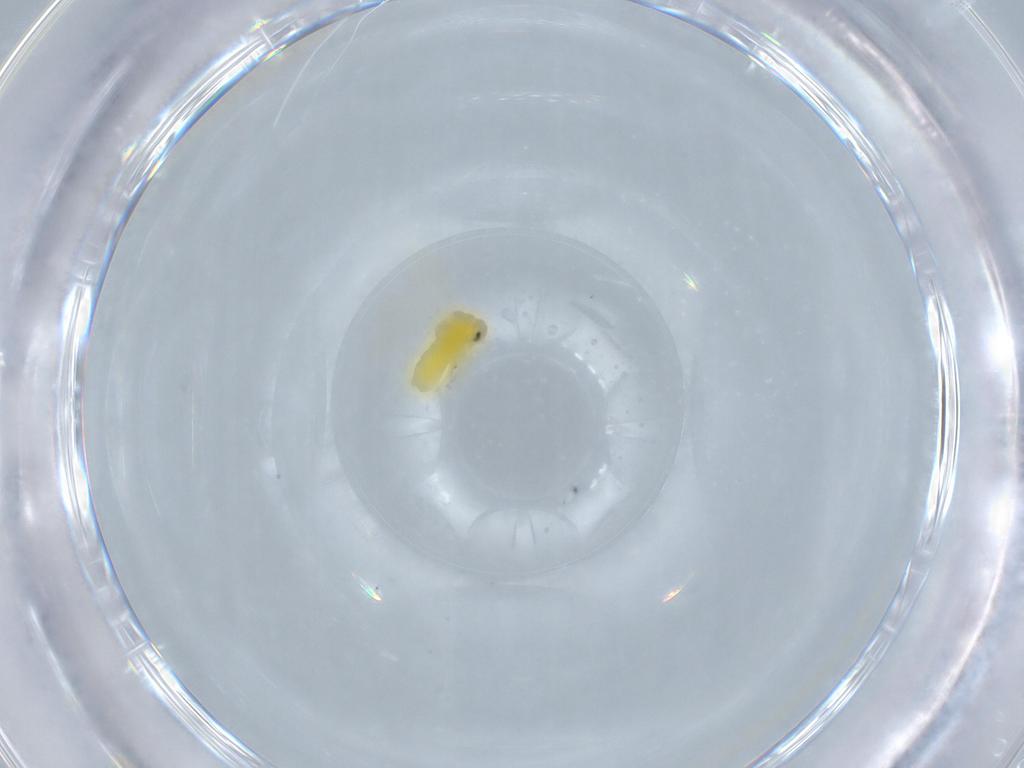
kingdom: Animalia
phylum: Arthropoda
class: Insecta
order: Hemiptera
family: Aleyrodidae
